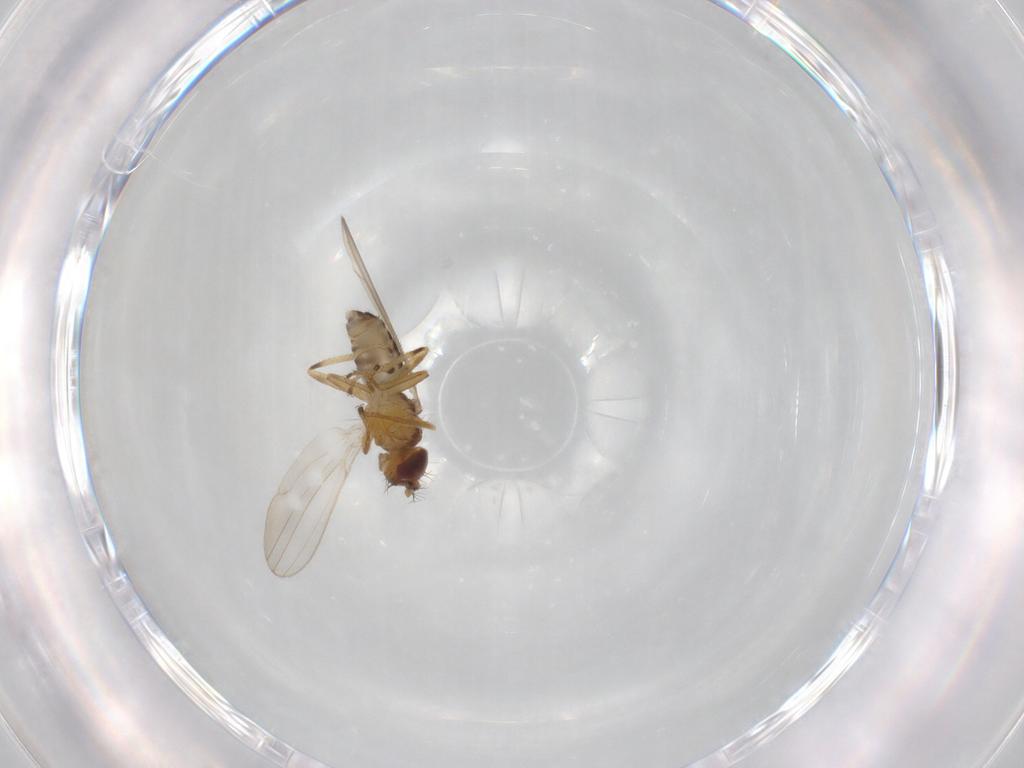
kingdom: Animalia
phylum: Arthropoda
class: Insecta
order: Diptera
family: Periscelididae
